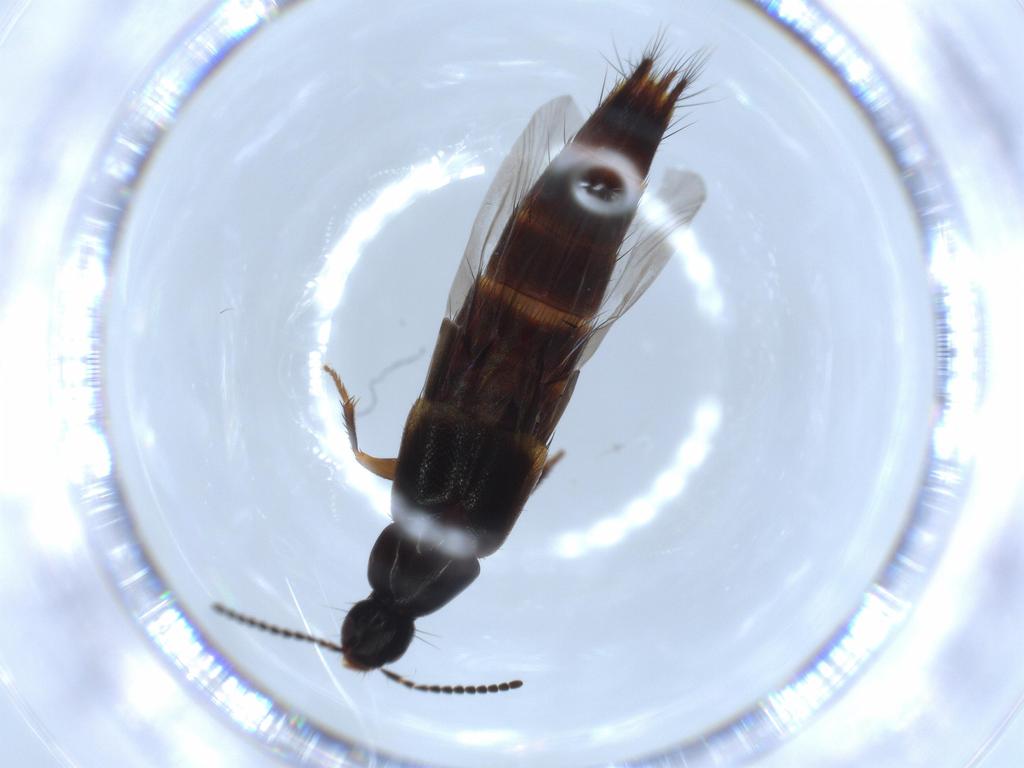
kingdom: Animalia
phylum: Arthropoda
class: Insecta
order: Coleoptera
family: Staphylinidae
